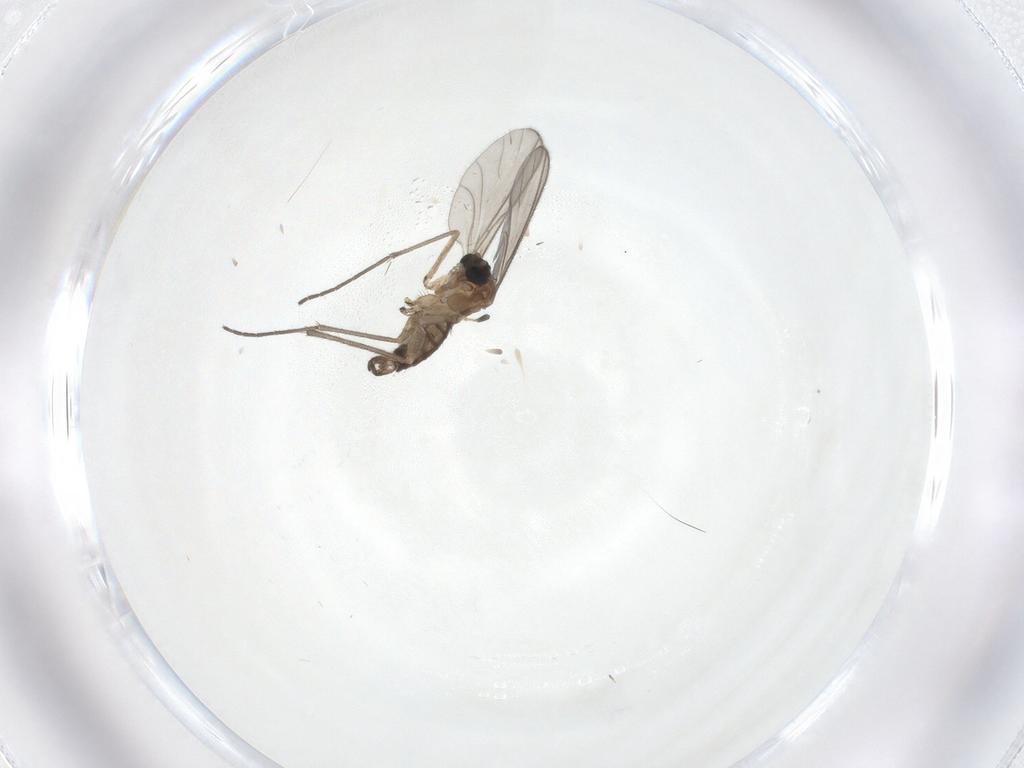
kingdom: Animalia
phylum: Arthropoda
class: Insecta
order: Diptera
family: Sciaridae
